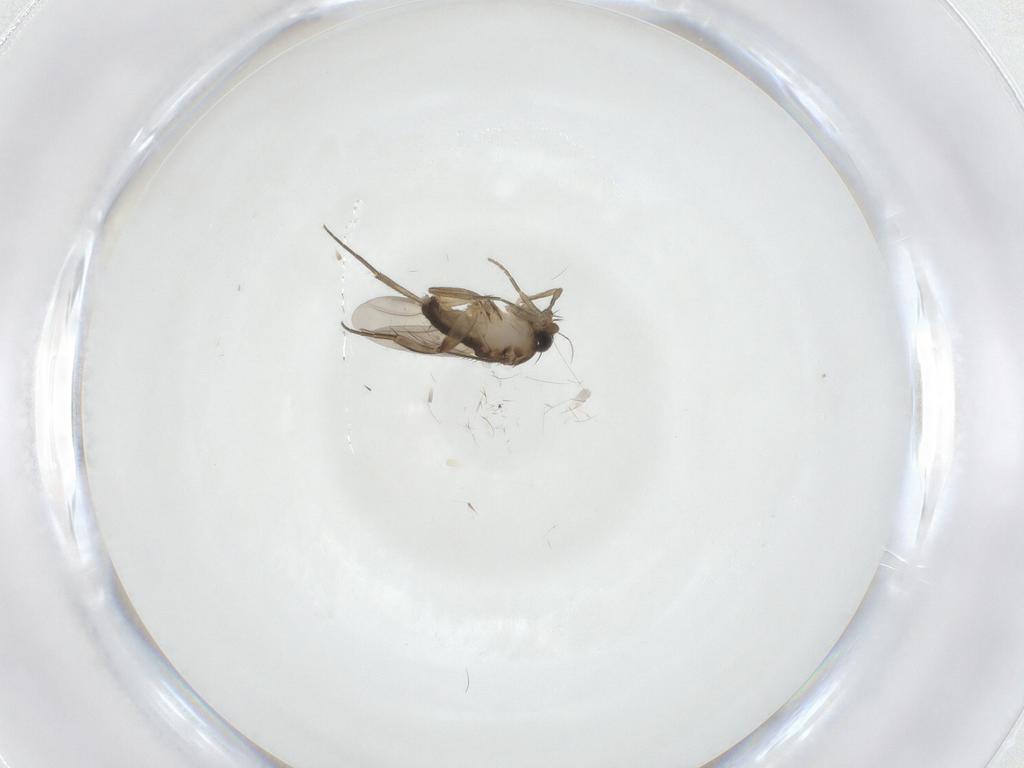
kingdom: Animalia
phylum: Arthropoda
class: Insecta
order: Diptera
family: Phoridae
